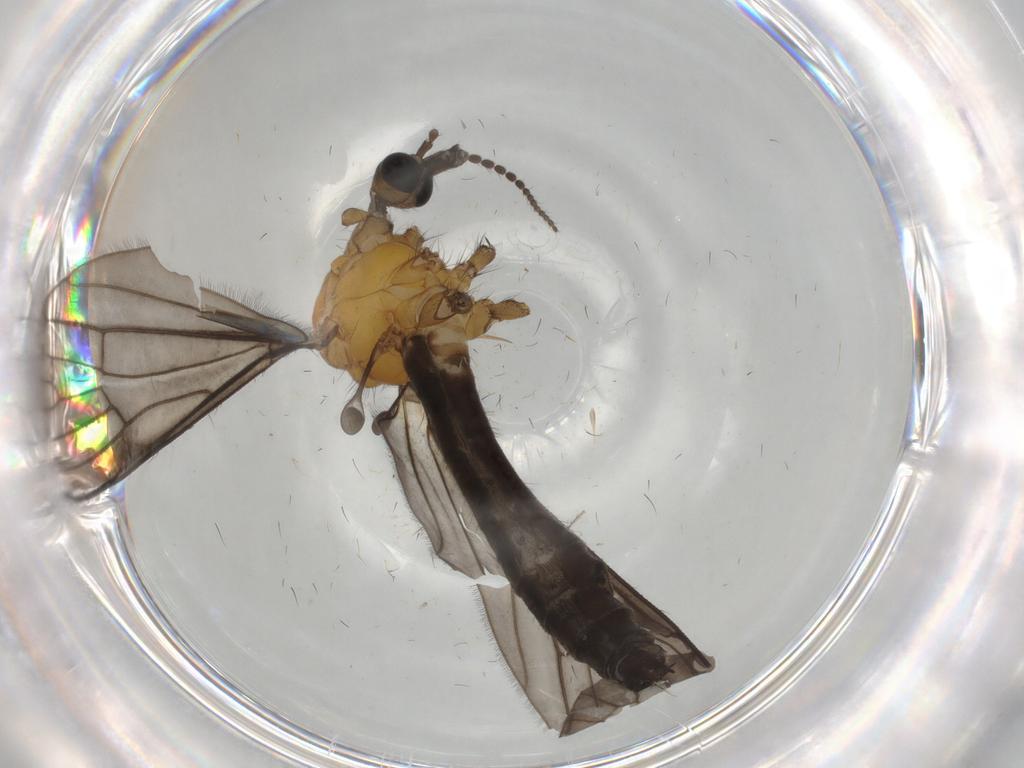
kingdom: Animalia
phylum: Arthropoda
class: Insecta
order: Diptera
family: Limoniidae
